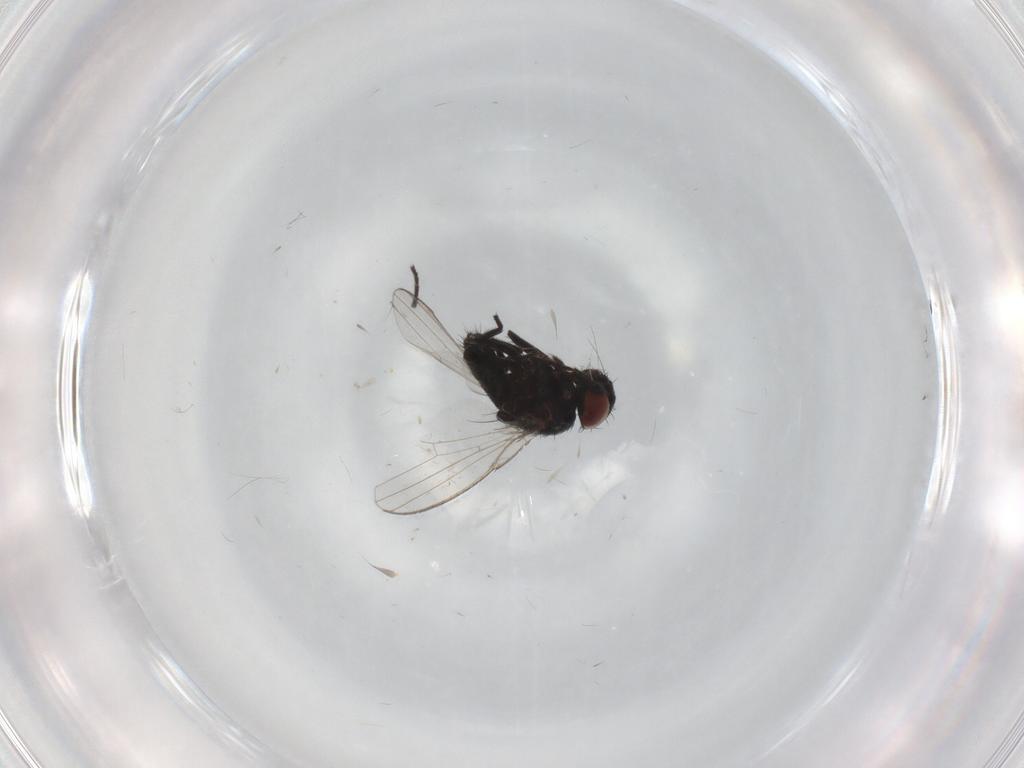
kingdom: Animalia
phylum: Arthropoda
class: Insecta
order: Diptera
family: Milichiidae
